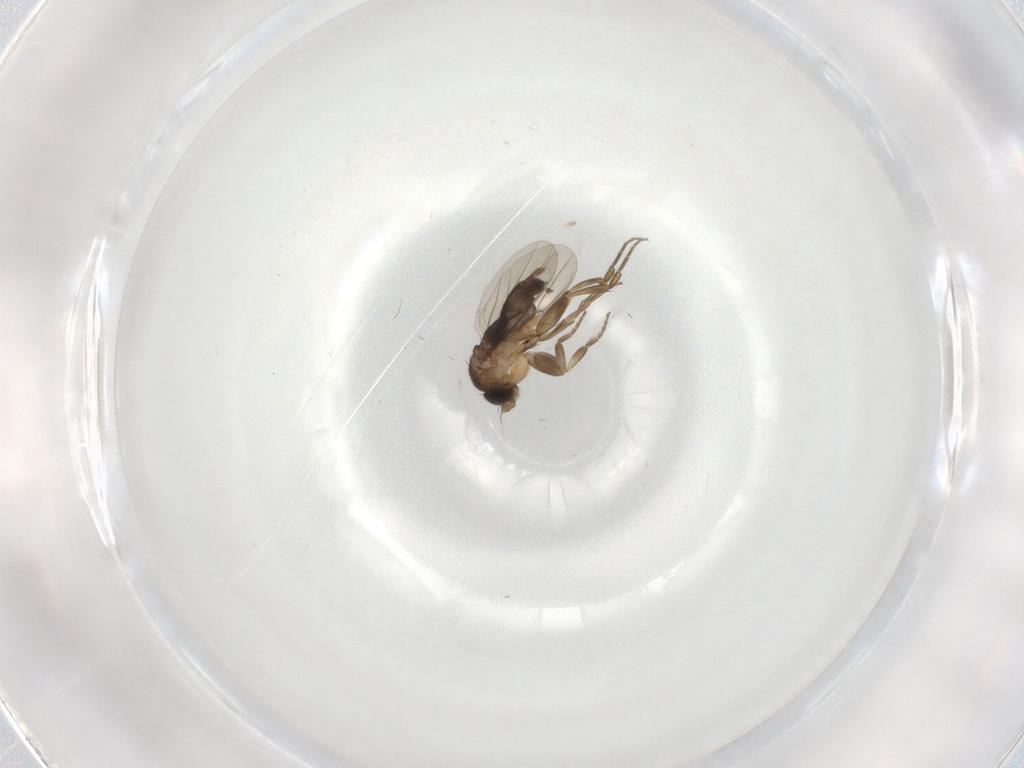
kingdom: Animalia
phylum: Arthropoda
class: Insecta
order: Diptera
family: Phoridae
